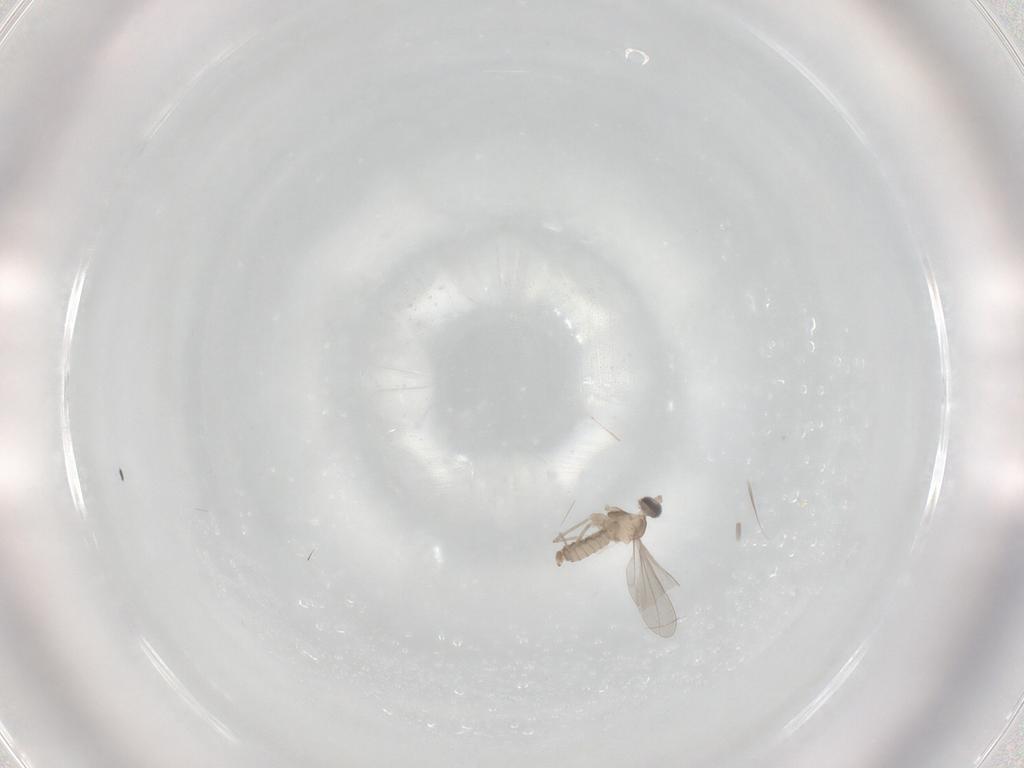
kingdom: Animalia
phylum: Arthropoda
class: Insecta
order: Diptera
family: Sciaridae
